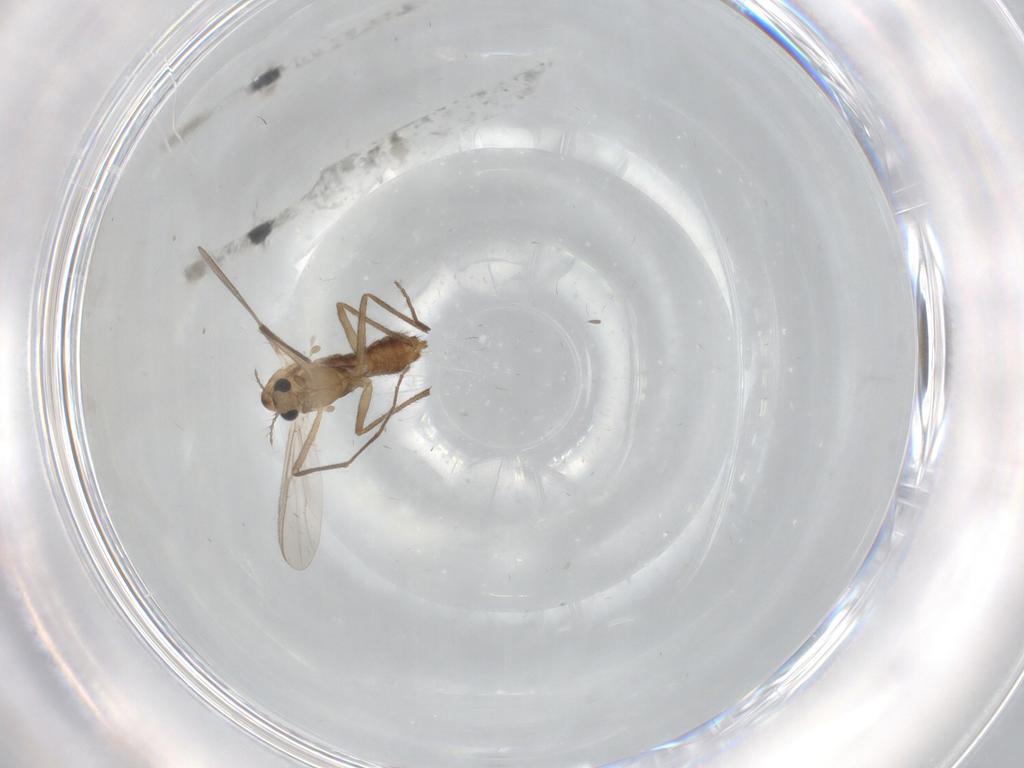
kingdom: Animalia
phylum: Arthropoda
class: Insecta
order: Diptera
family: Chironomidae
